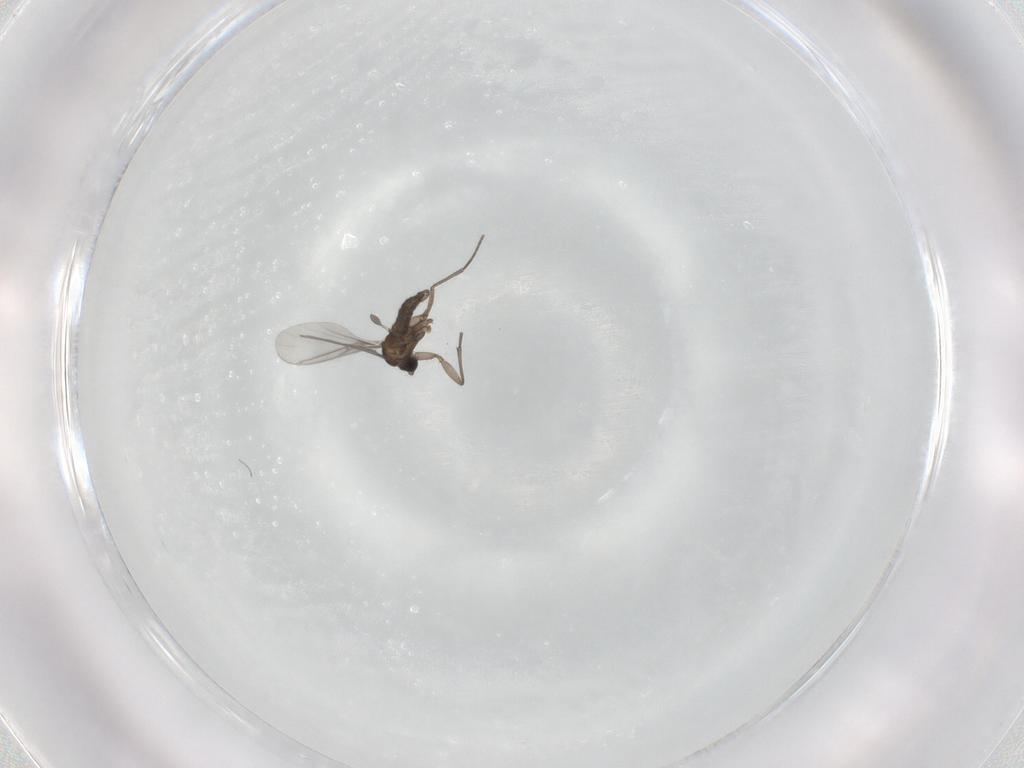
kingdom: Animalia
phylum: Arthropoda
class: Insecta
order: Diptera
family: Sciaridae
